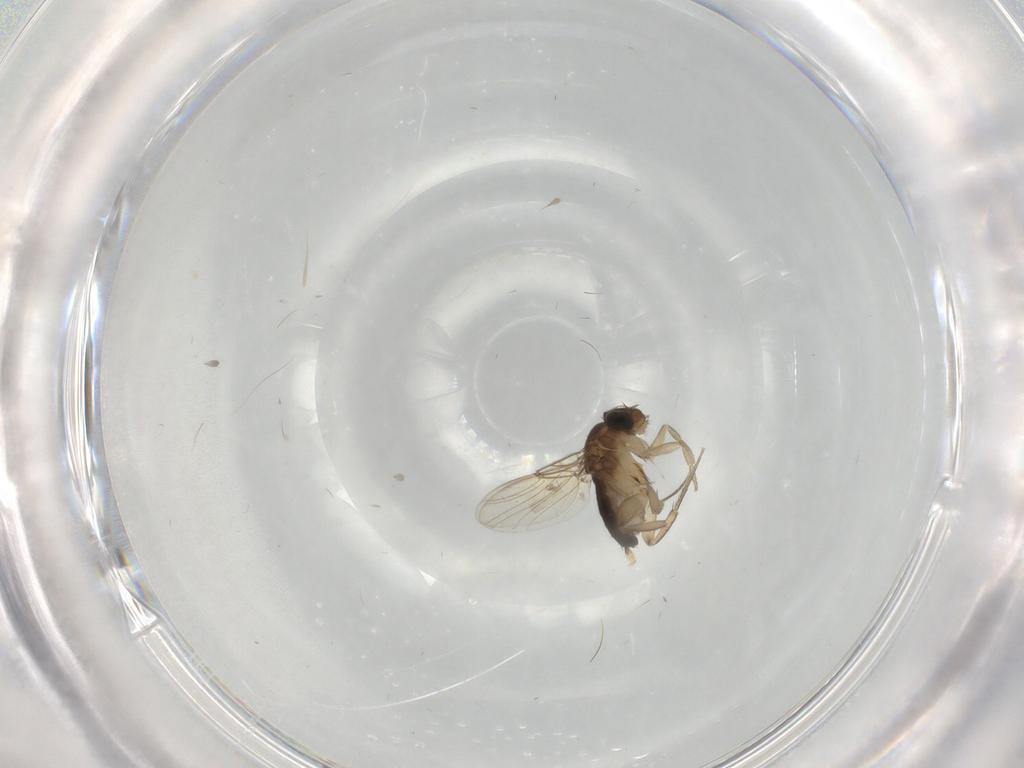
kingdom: Animalia
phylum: Arthropoda
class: Insecta
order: Diptera
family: Phoridae
